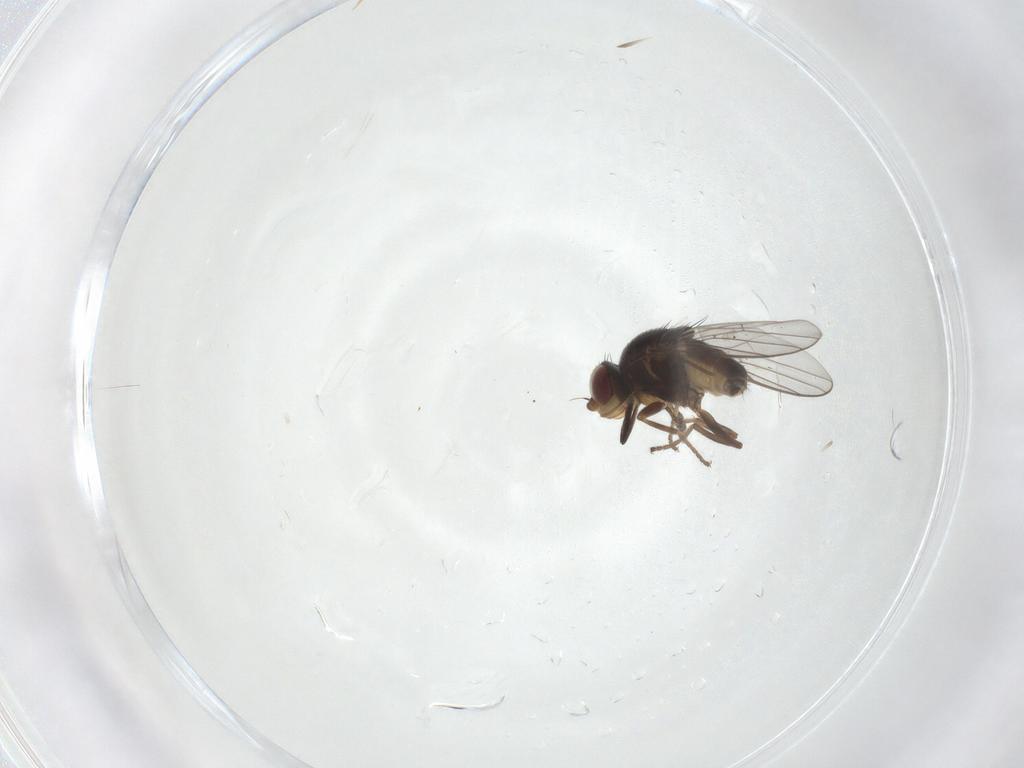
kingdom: Animalia
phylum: Arthropoda
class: Insecta
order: Diptera
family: Chloropidae
